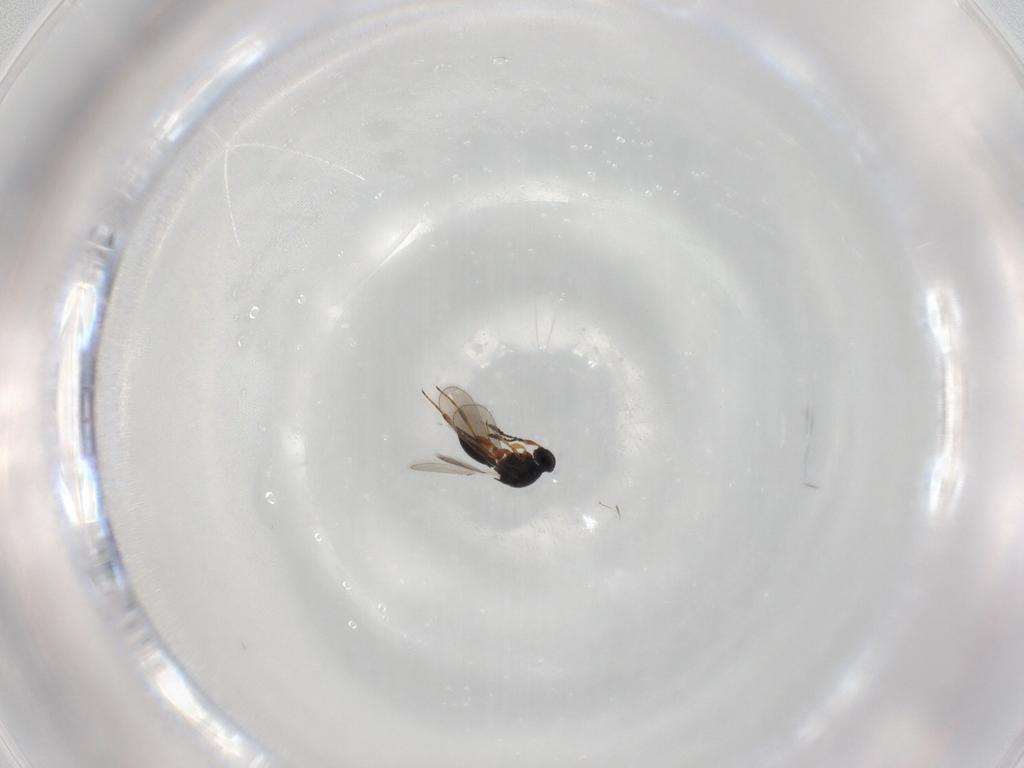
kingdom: Animalia
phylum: Arthropoda
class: Insecta
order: Hymenoptera
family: Platygastridae
